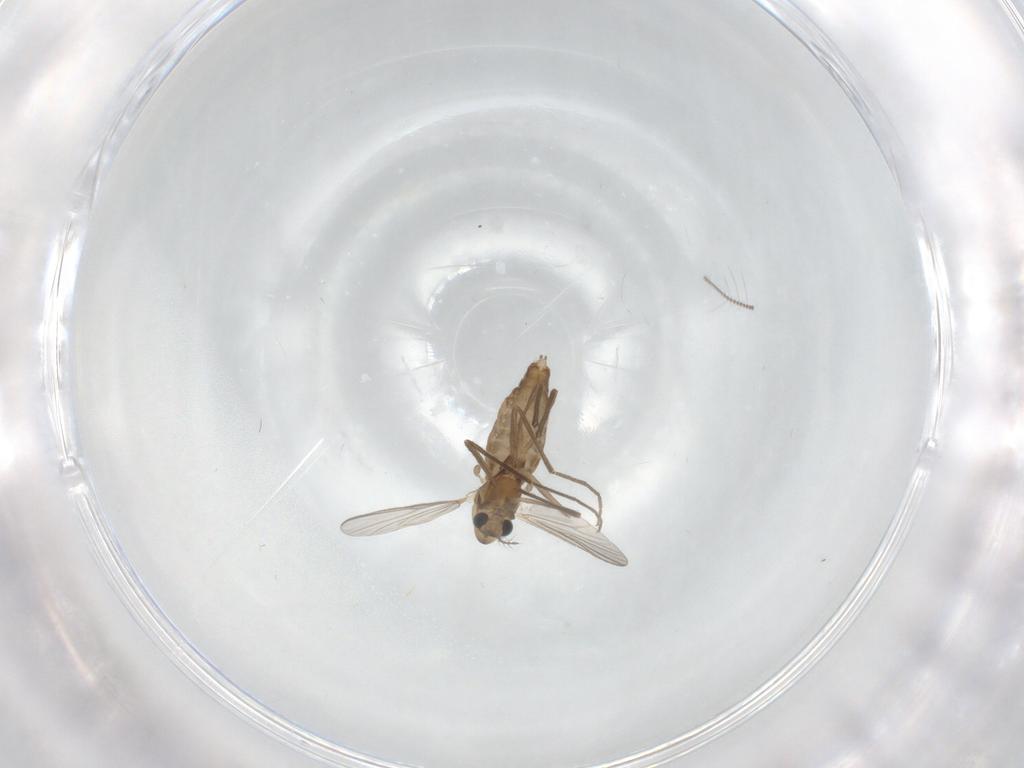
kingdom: Animalia
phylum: Arthropoda
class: Insecta
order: Diptera
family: Chironomidae
